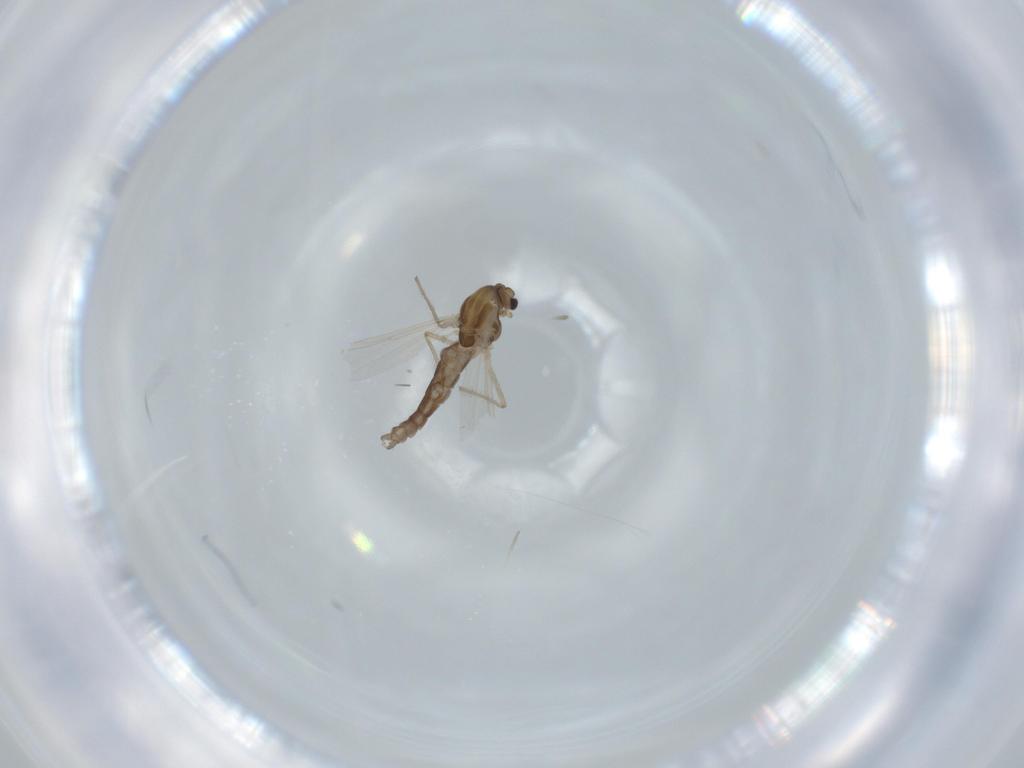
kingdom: Animalia
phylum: Arthropoda
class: Insecta
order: Diptera
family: Chironomidae
